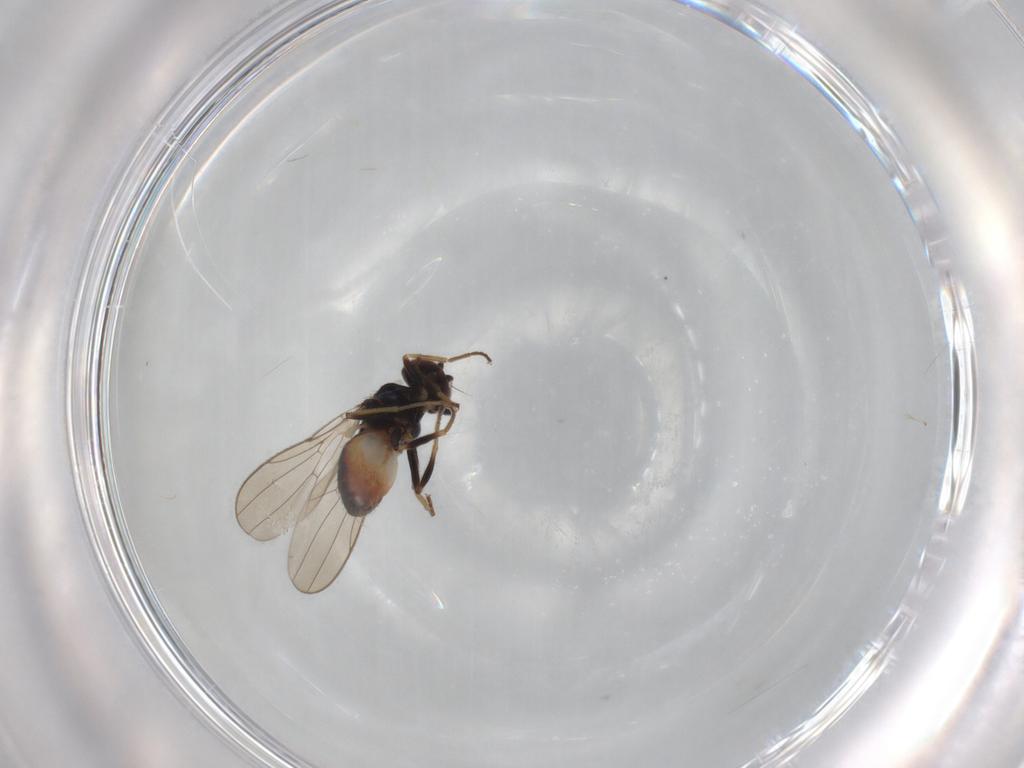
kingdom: Animalia
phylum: Arthropoda
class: Insecta
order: Diptera
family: Chloropidae
